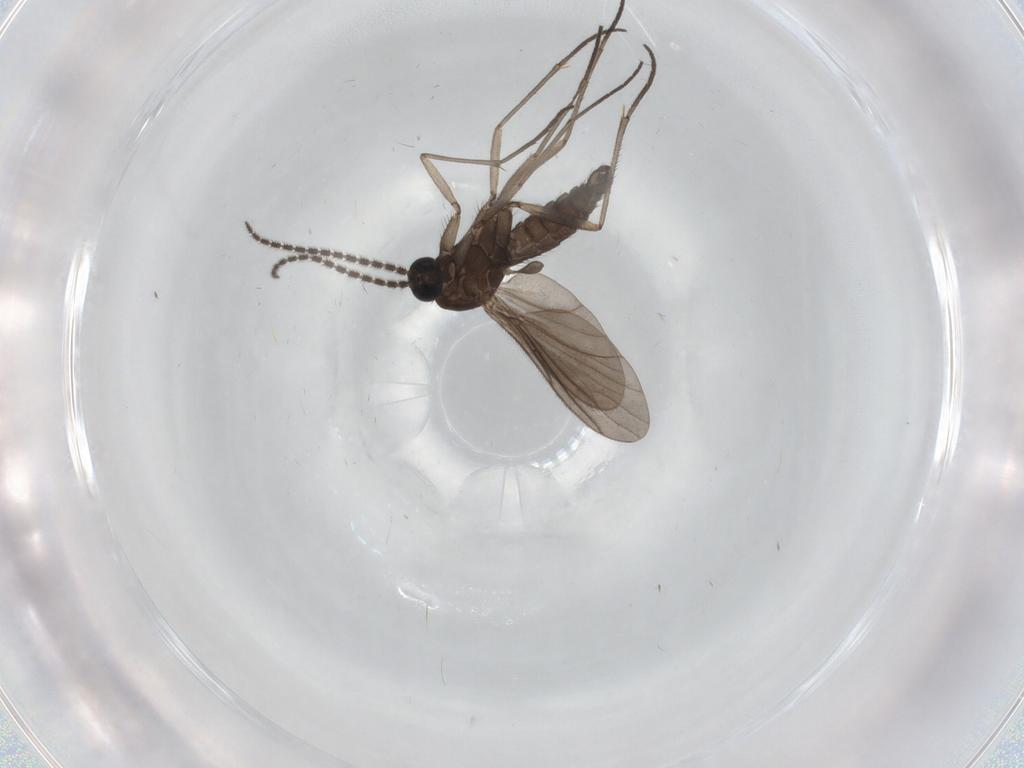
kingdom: Animalia
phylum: Arthropoda
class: Insecta
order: Diptera
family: Sciaridae
